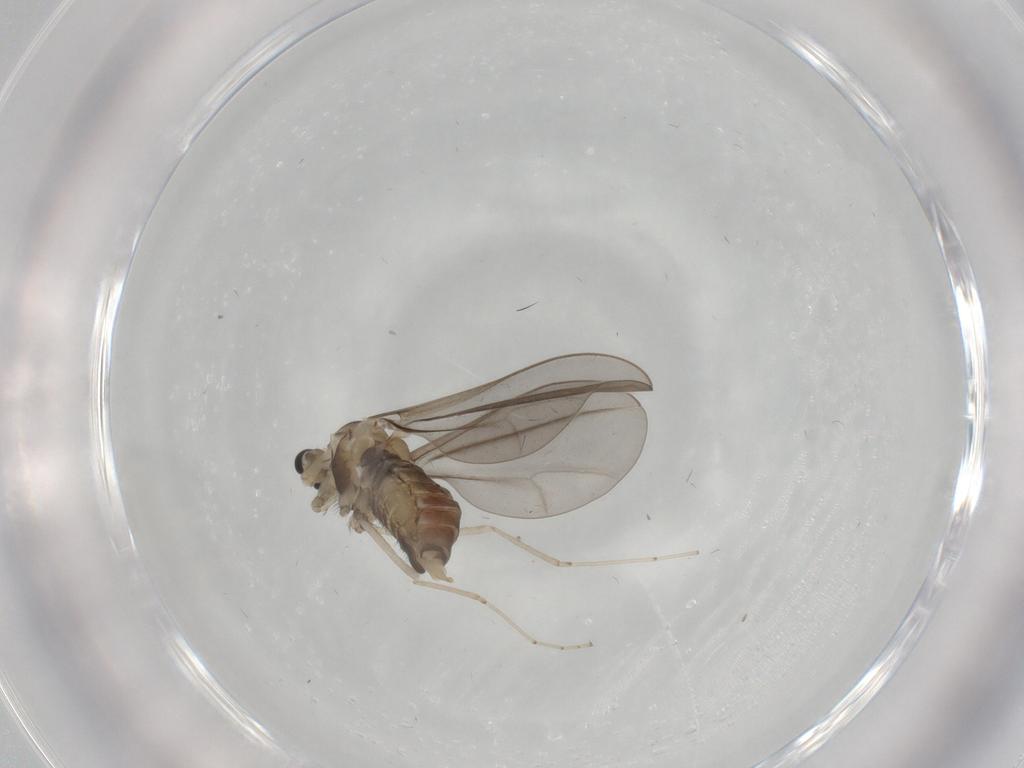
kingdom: Animalia
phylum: Arthropoda
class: Insecta
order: Diptera
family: Cecidomyiidae
